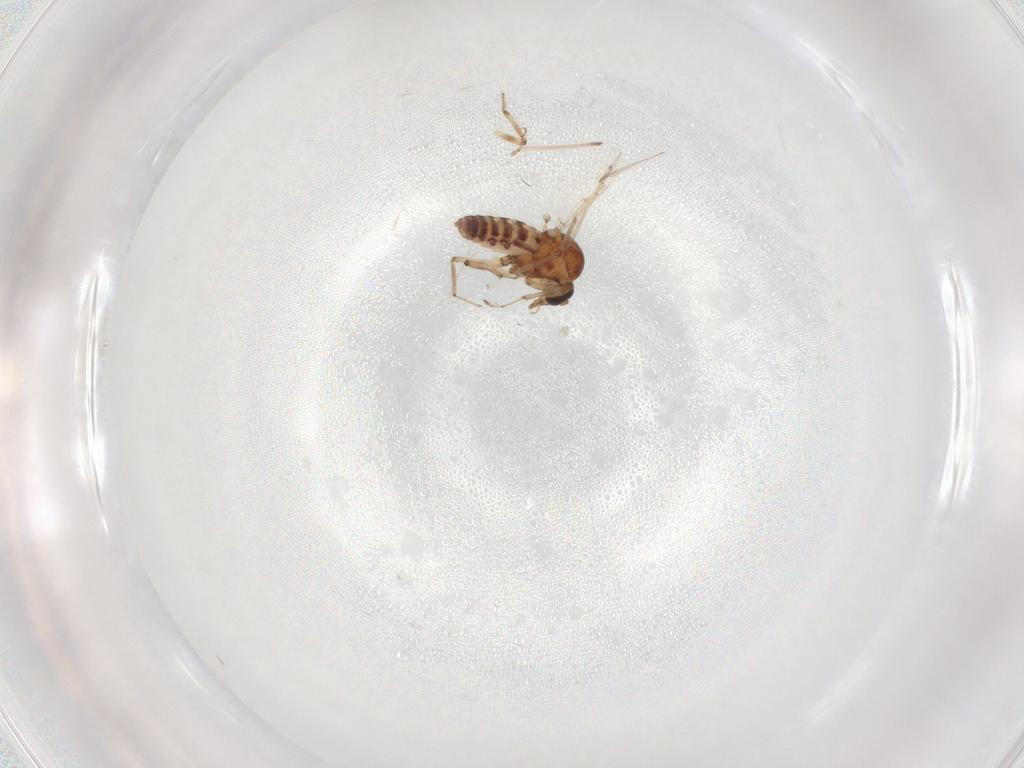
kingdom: Animalia
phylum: Arthropoda
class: Insecta
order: Diptera
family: Ceratopogonidae
